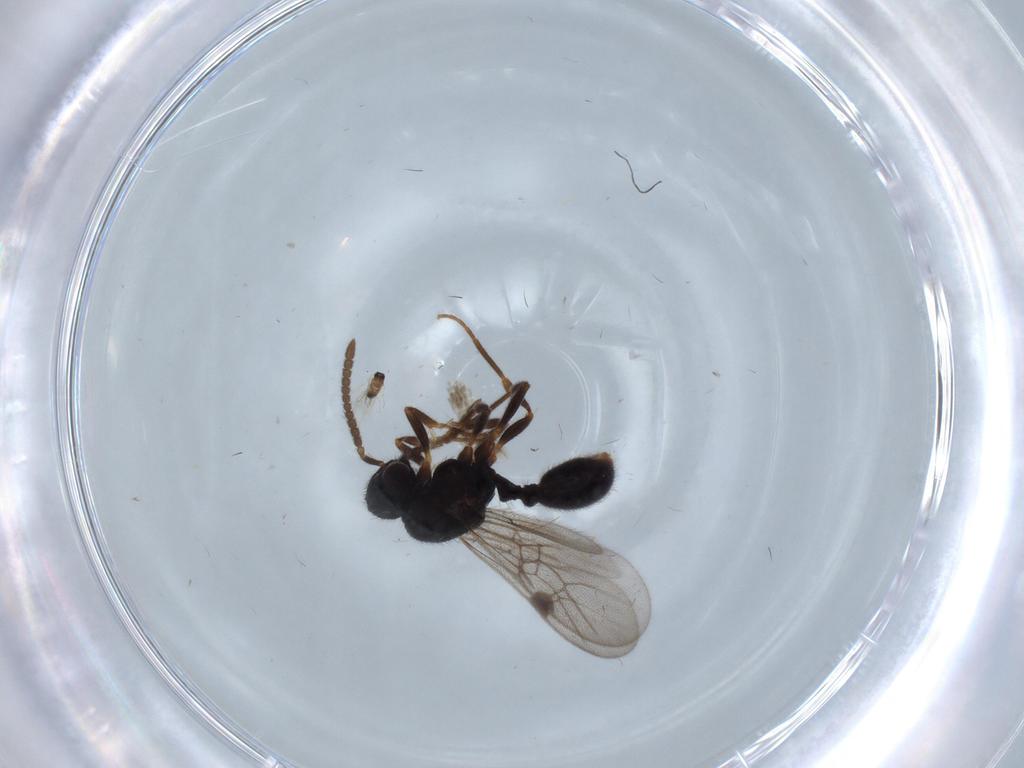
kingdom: Animalia
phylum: Arthropoda
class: Insecta
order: Hymenoptera
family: Formicidae
